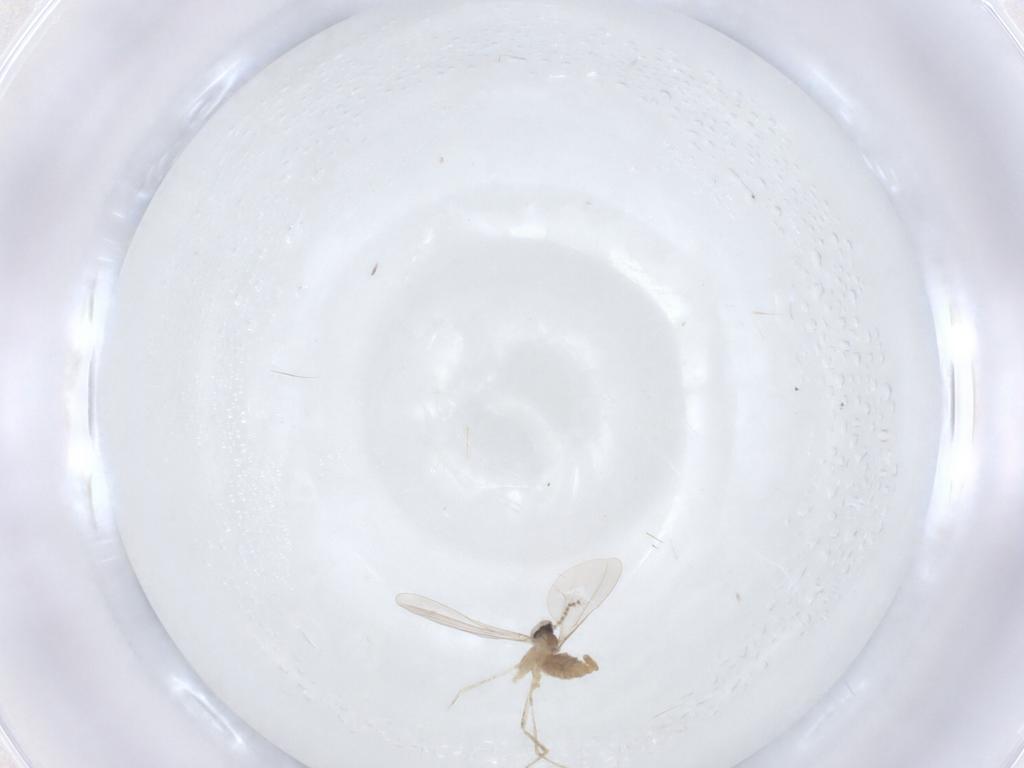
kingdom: Animalia
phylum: Arthropoda
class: Insecta
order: Diptera
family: Cecidomyiidae
